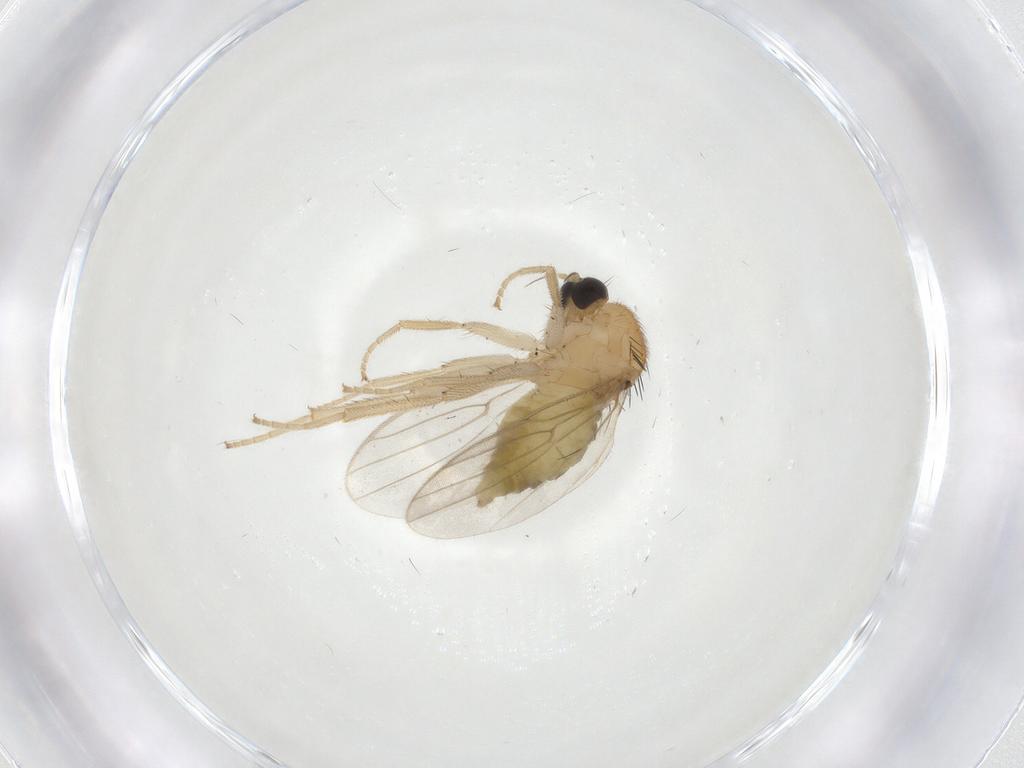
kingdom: Animalia
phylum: Arthropoda
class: Insecta
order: Diptera
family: Hybotidae
